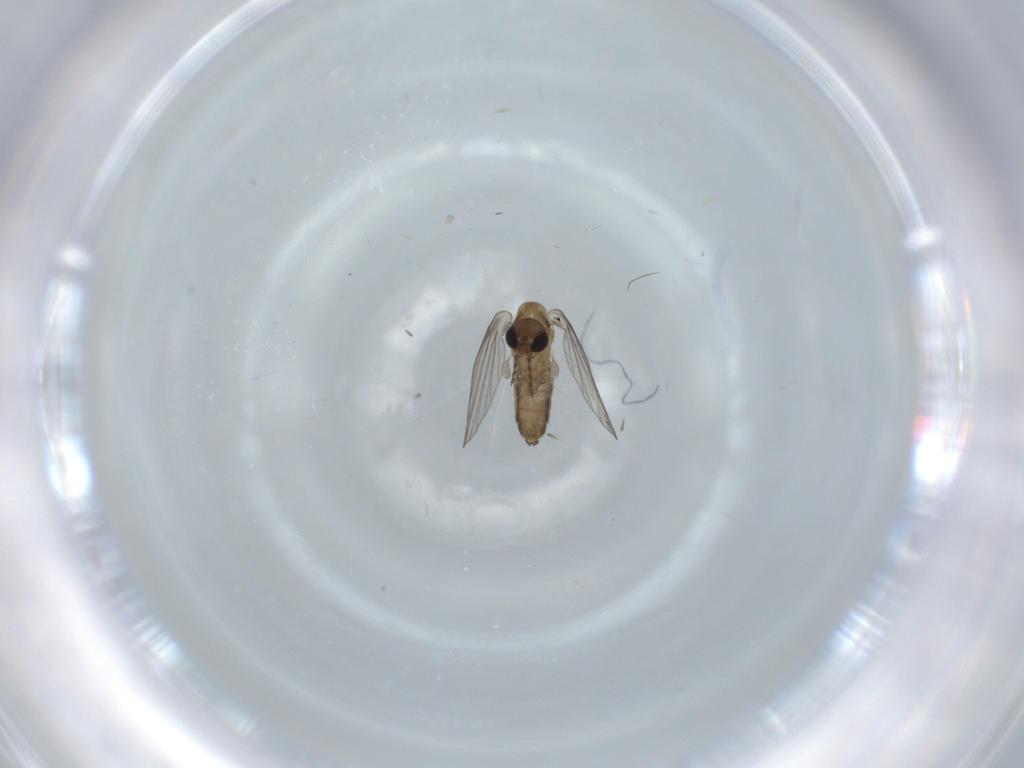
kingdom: Animalia
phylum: Arthropoda
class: Insecta
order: Diptera
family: Psychodidae
